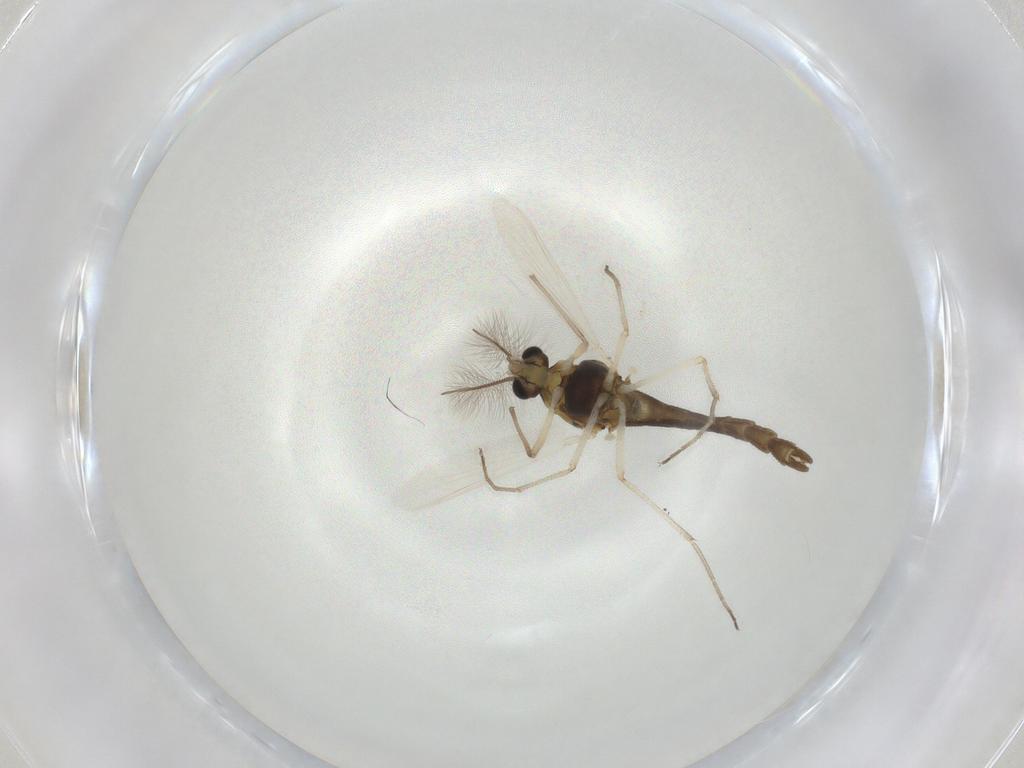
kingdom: Animalia
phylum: Arthropoda
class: Insecta
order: Diptera
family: Chironomidae
